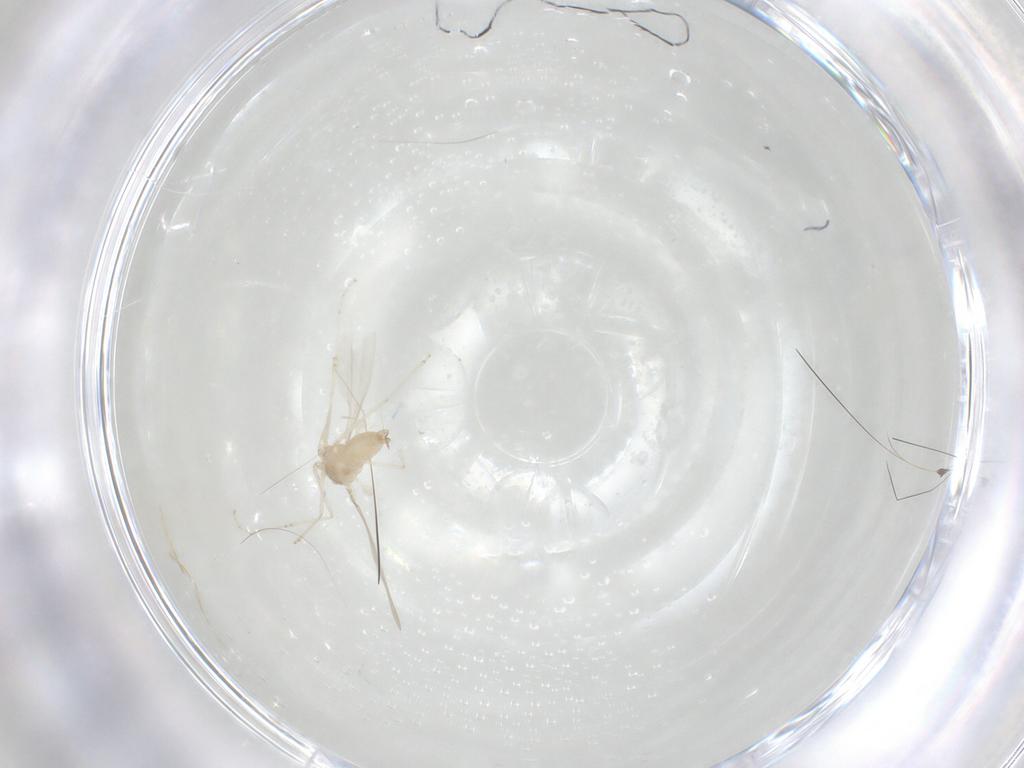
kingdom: Animalia
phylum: Arthropoda
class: Insecta
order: Diptera
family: Cecidomyiidae
